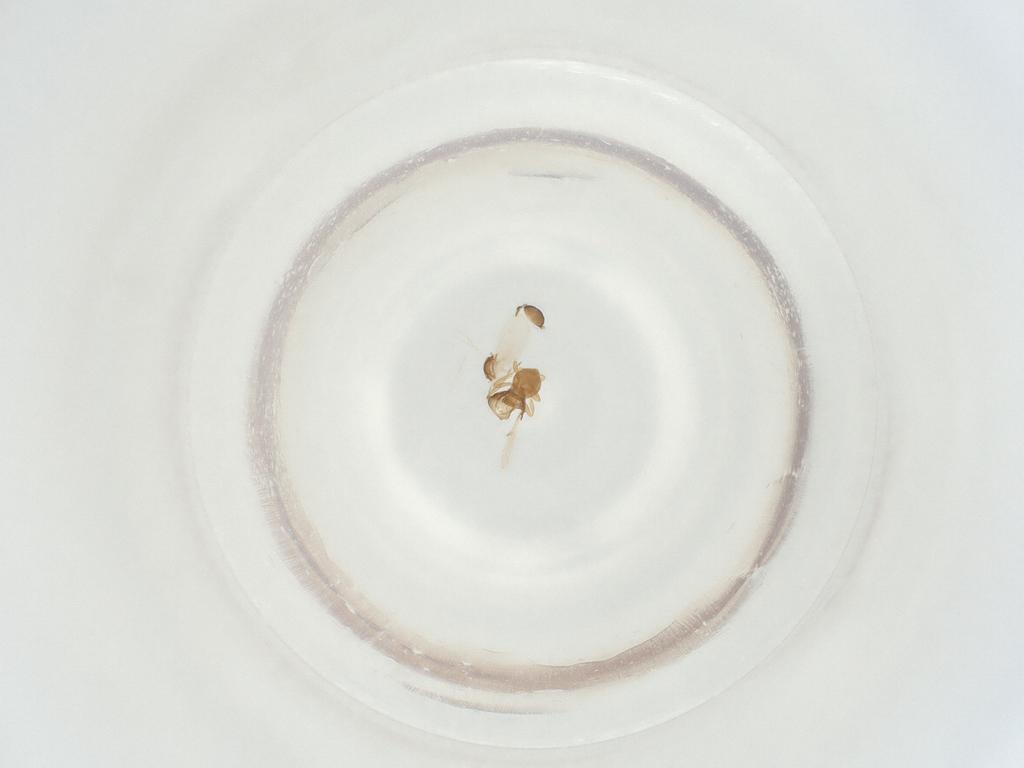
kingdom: Animalia
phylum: Arthropoda
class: Insecta
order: Hymenoptera
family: Scelionidae
